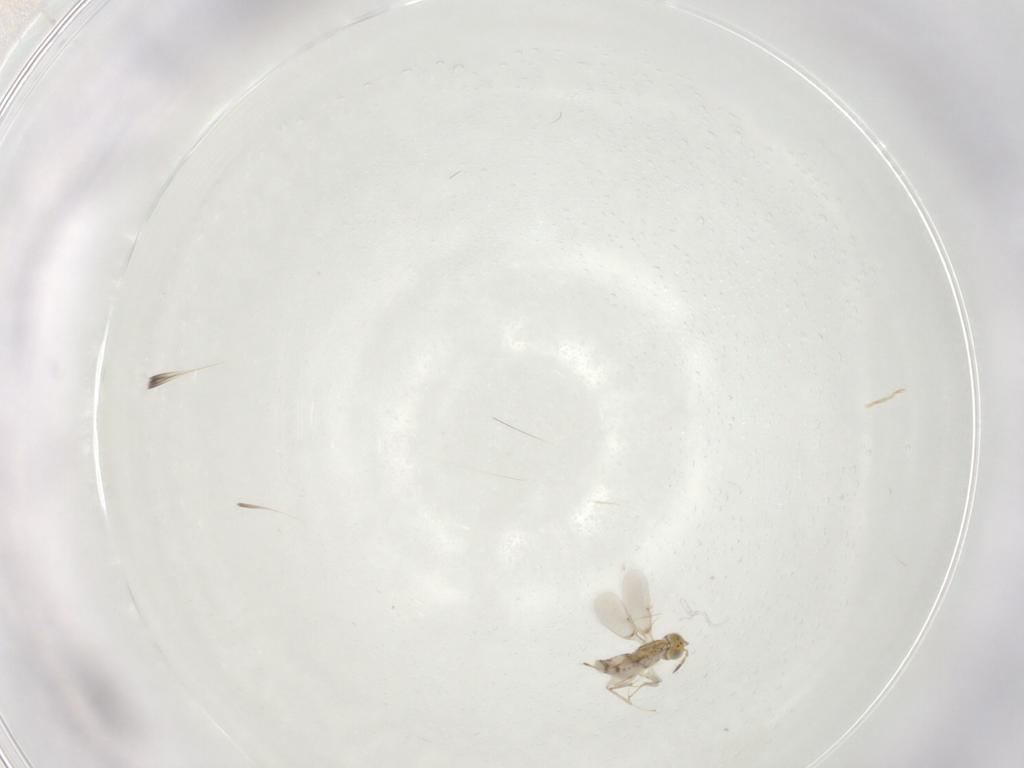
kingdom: Animalia
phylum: Arthropoda
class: Insecta
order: Hymenoptera
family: Aphelinidae
